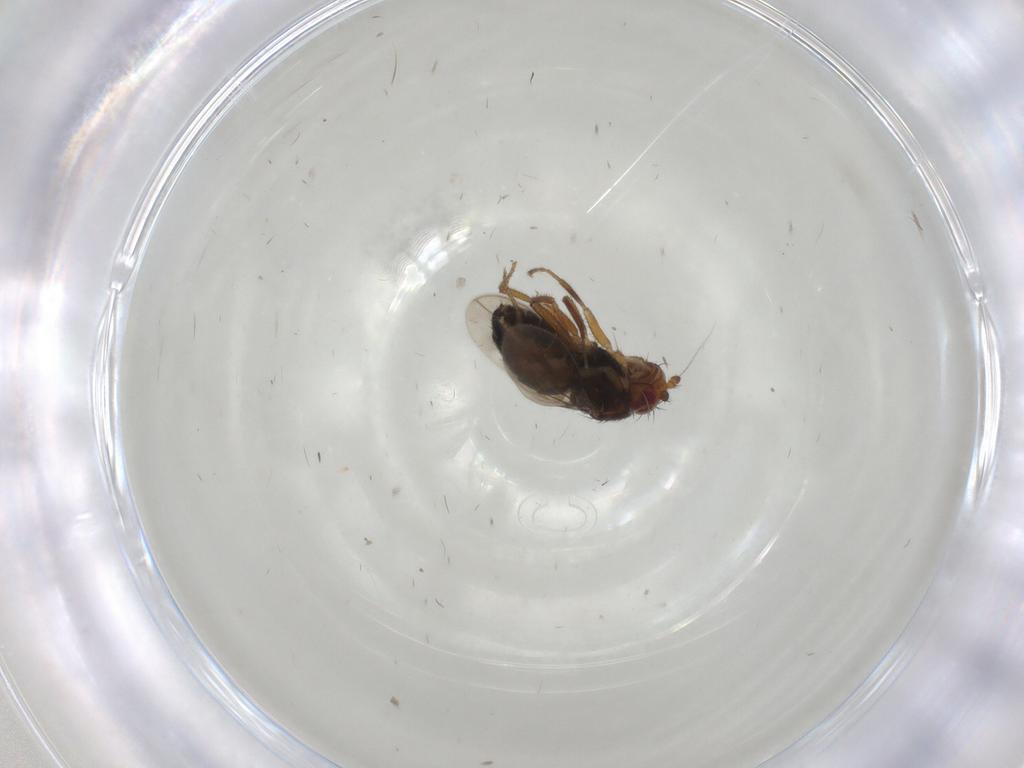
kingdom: Animalia
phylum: Arthropoda
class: Insecta
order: Diptera
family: Sphaeroceridae
